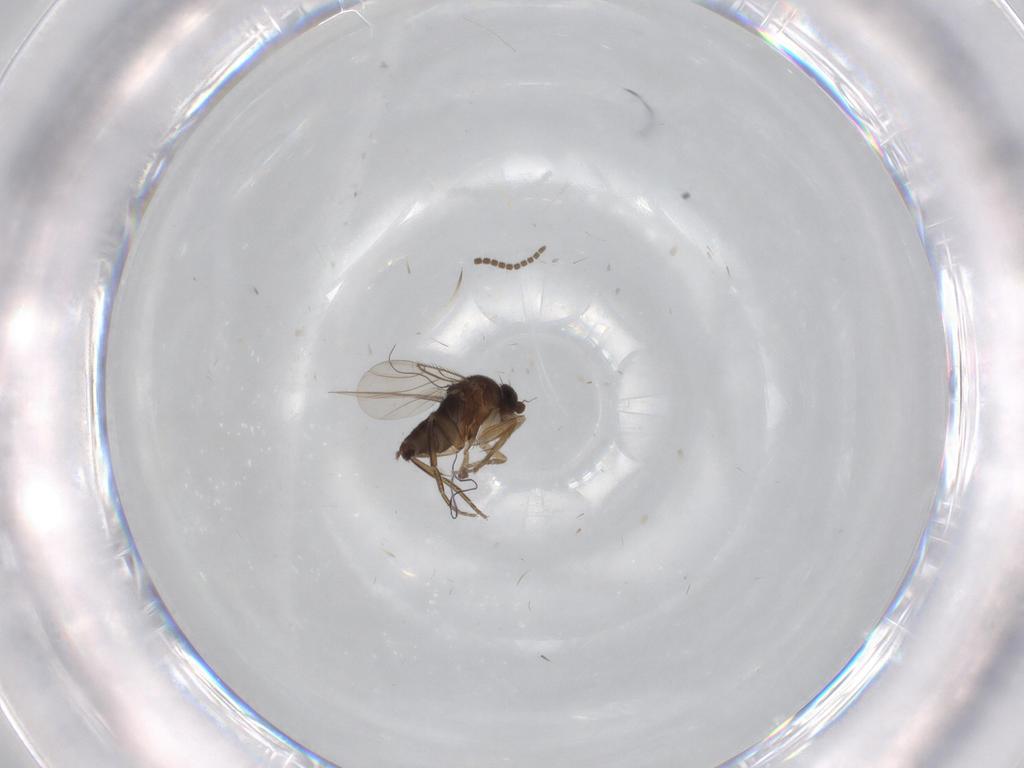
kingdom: Animalia
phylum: Arthropoda
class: Insecta
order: Diptera
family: Phoridae
